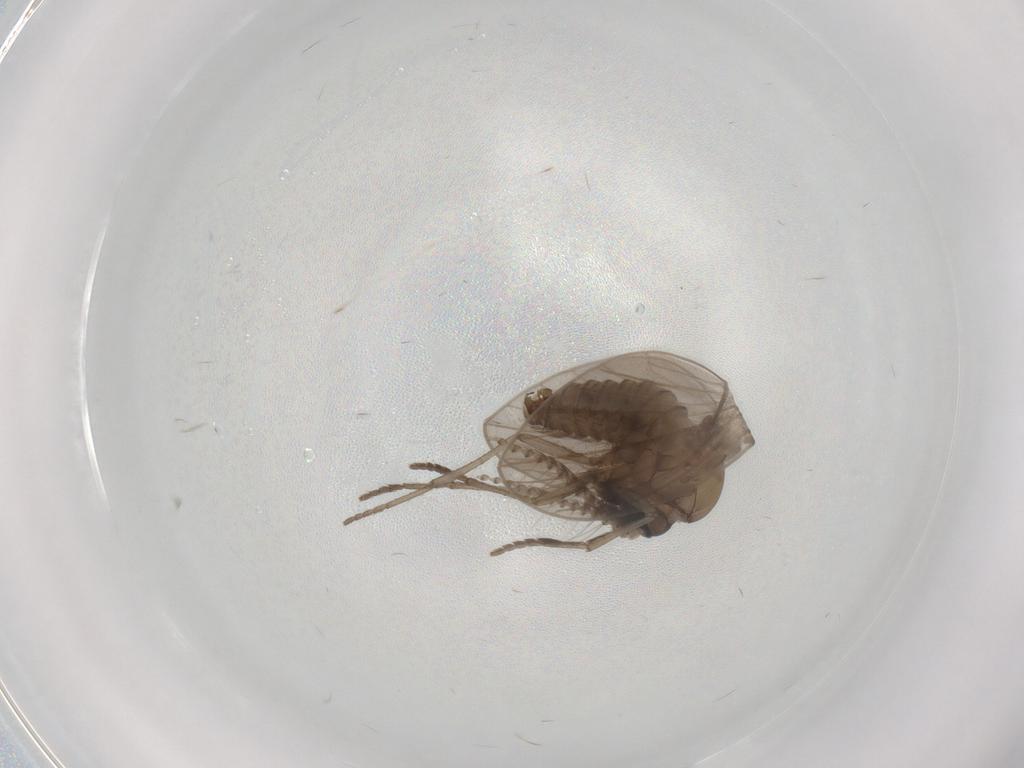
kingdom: Animalia
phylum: Arthropoda
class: Insecta
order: Diptera
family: Psychodidae
